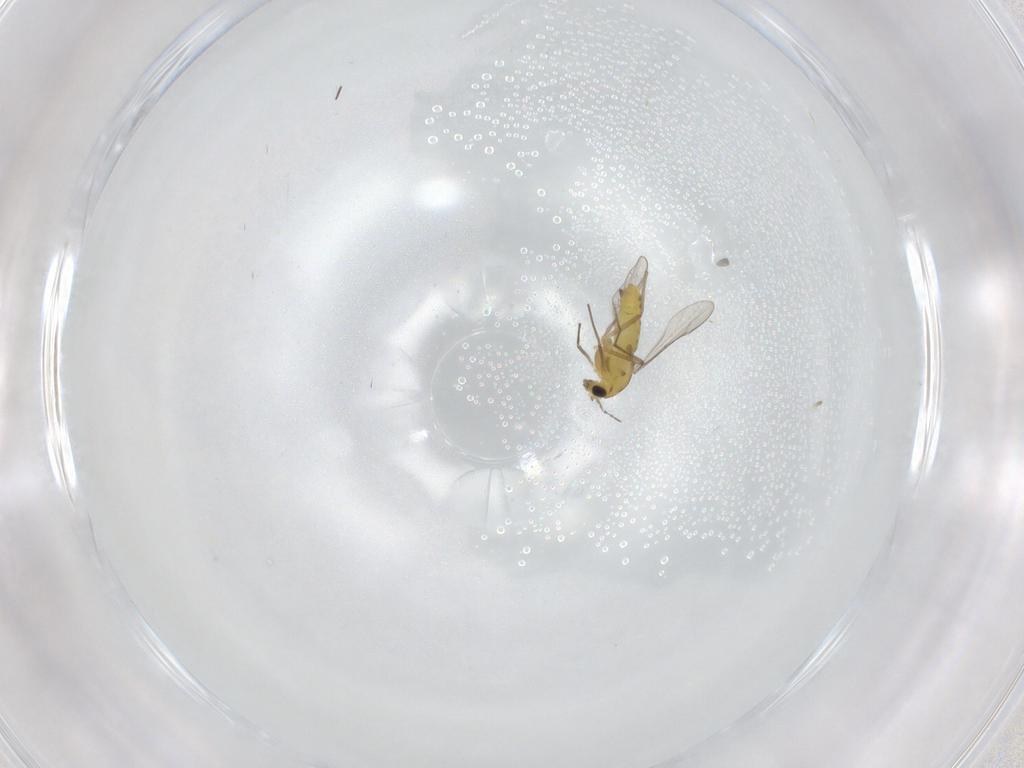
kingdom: Animalia
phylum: Arthropoda
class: Insecta
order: Diptera
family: Chironomidae
